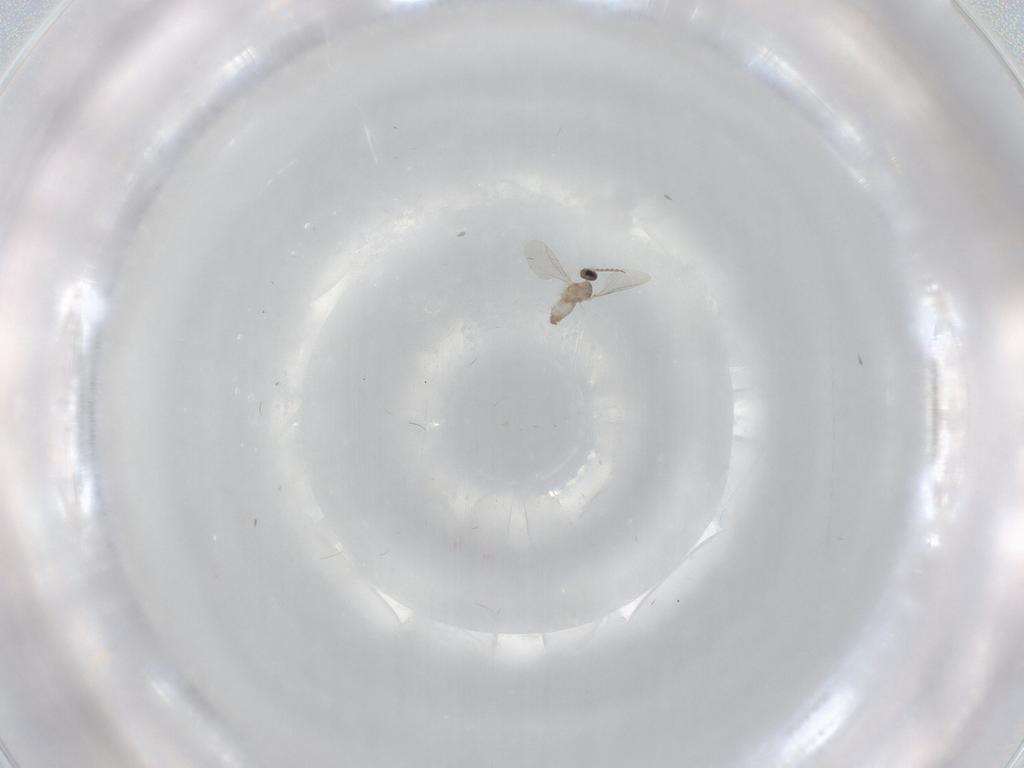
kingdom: Animalia
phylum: Arthropoda
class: Insecta
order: Diptera
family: Cecidomyiidae
